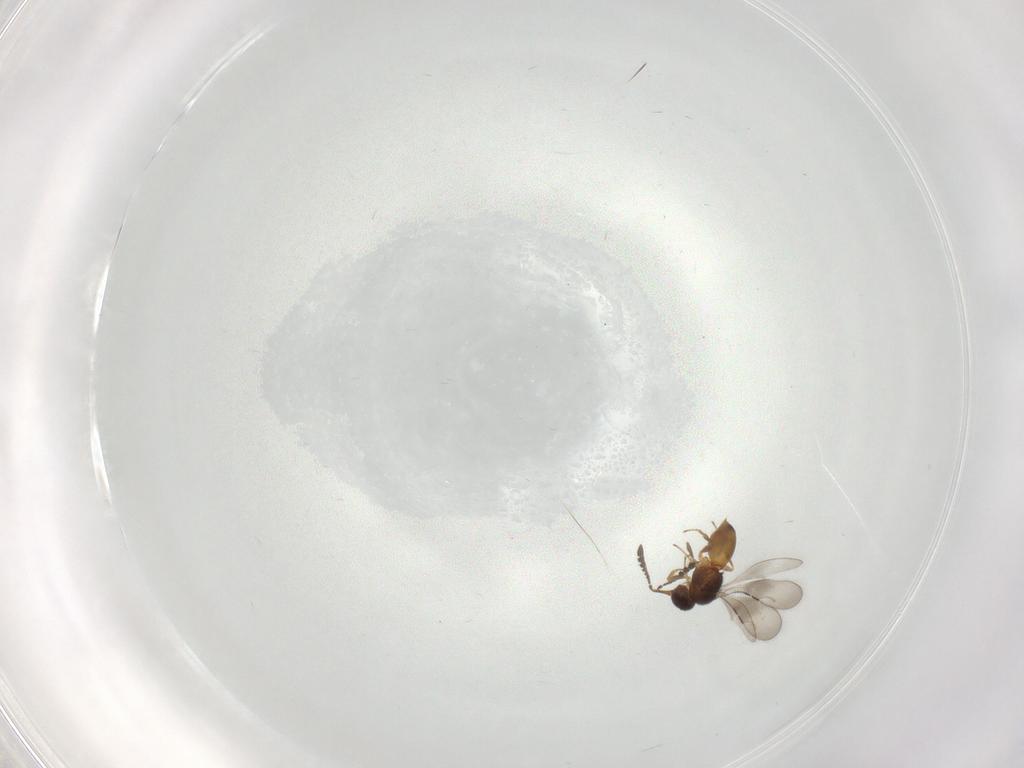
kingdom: Animalia
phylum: Arthropoda
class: Insecta
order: Hymenoptera
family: Ceraphronidae
